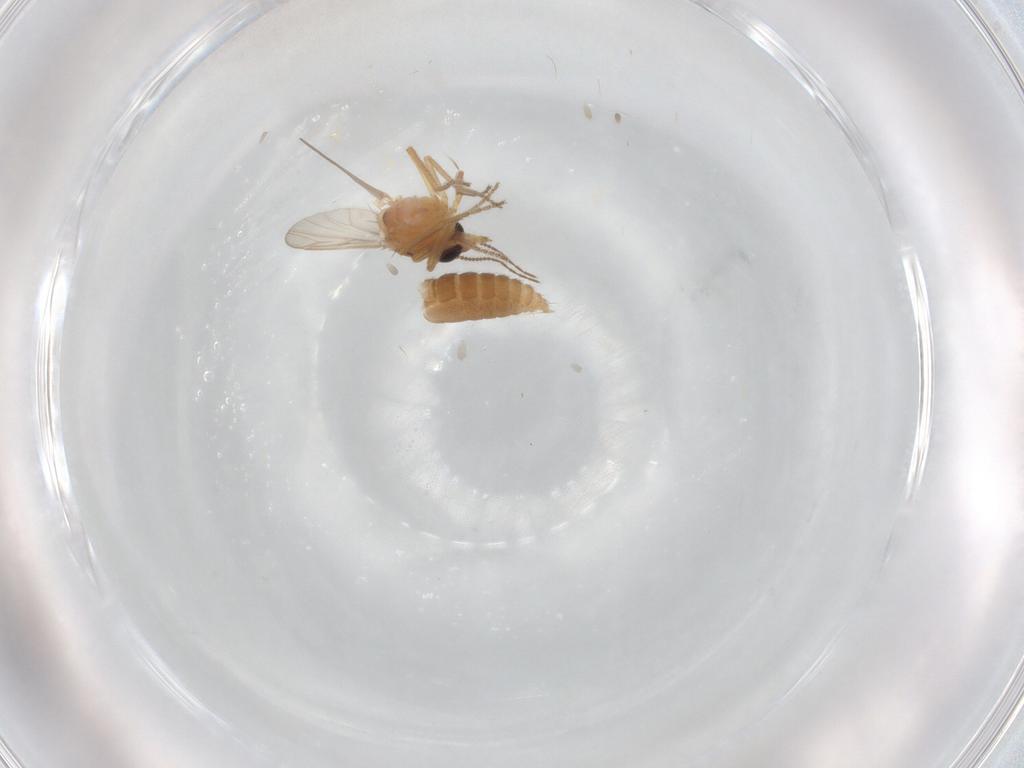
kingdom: Animalia
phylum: Arthropoda
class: Insecta
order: Diptera
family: Ceratopogonidae
